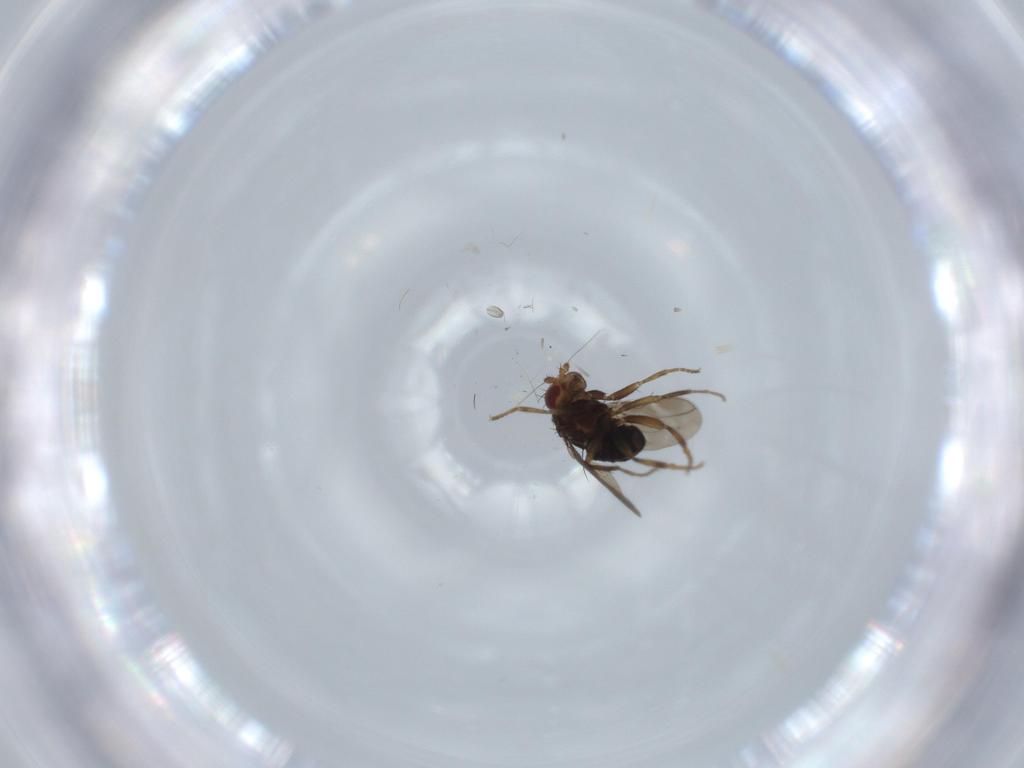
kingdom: Animalia
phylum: Arthropoda
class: Insecta
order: Diptera
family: Sciaridae
